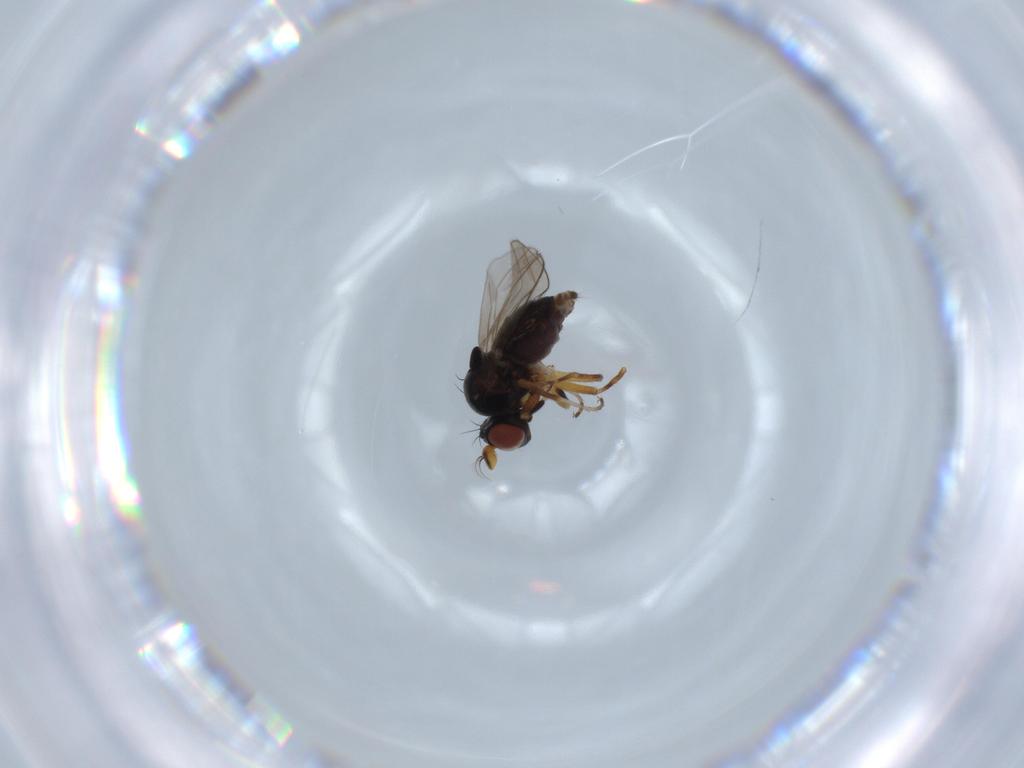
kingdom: Animalia
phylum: Arthropoda
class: Insecta
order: Diptera
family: Ephydridae
